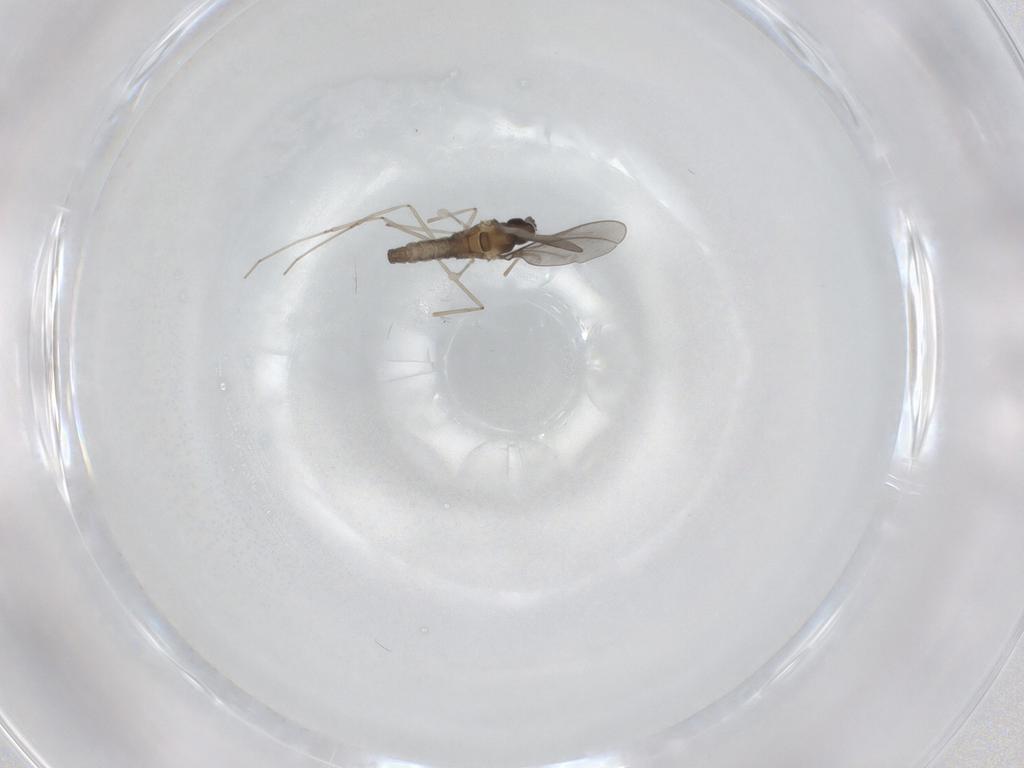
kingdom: Animalia
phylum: Arthropoda
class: Insecta
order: Diptera
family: Cecidomyiidae
